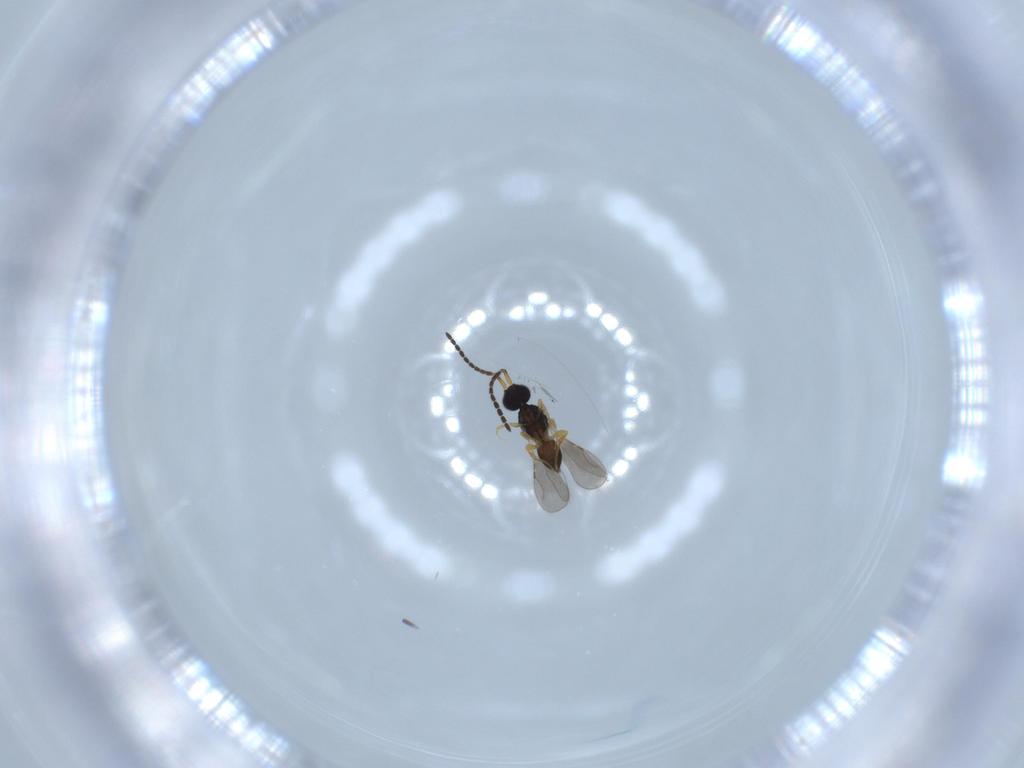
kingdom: Animalia
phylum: Arthropoda
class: Insecta
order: Hymenoptera
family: Ceraphronidae
